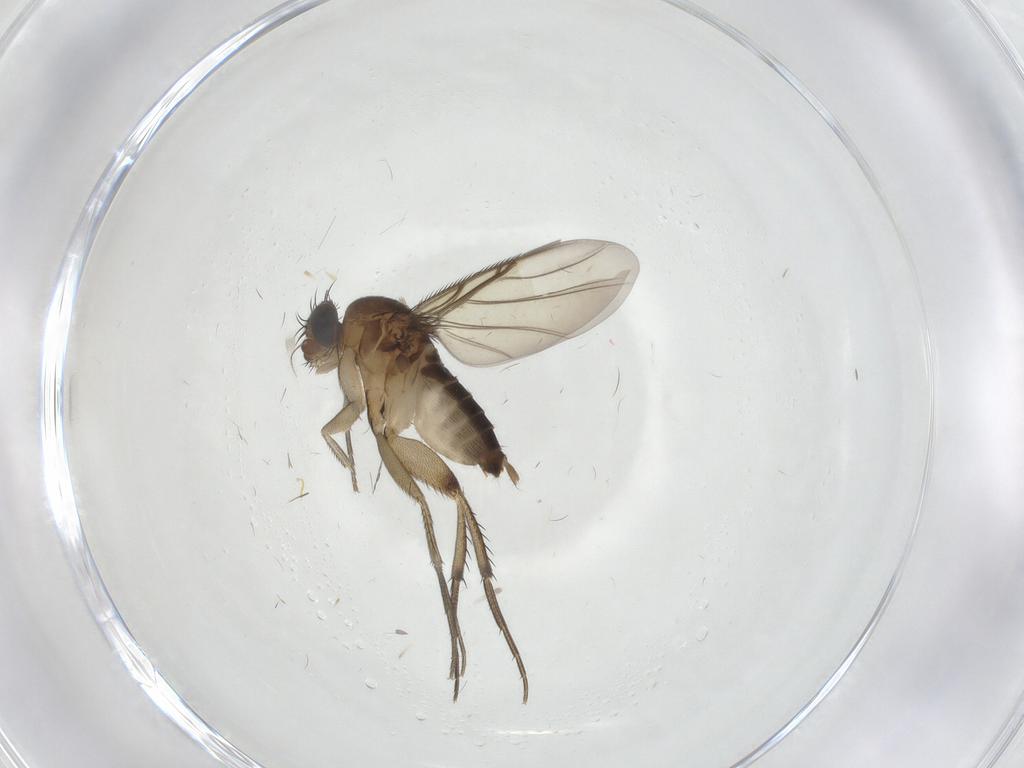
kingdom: Animalia
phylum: Arthropoda
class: Insecta
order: Diptera
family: Phoridae
